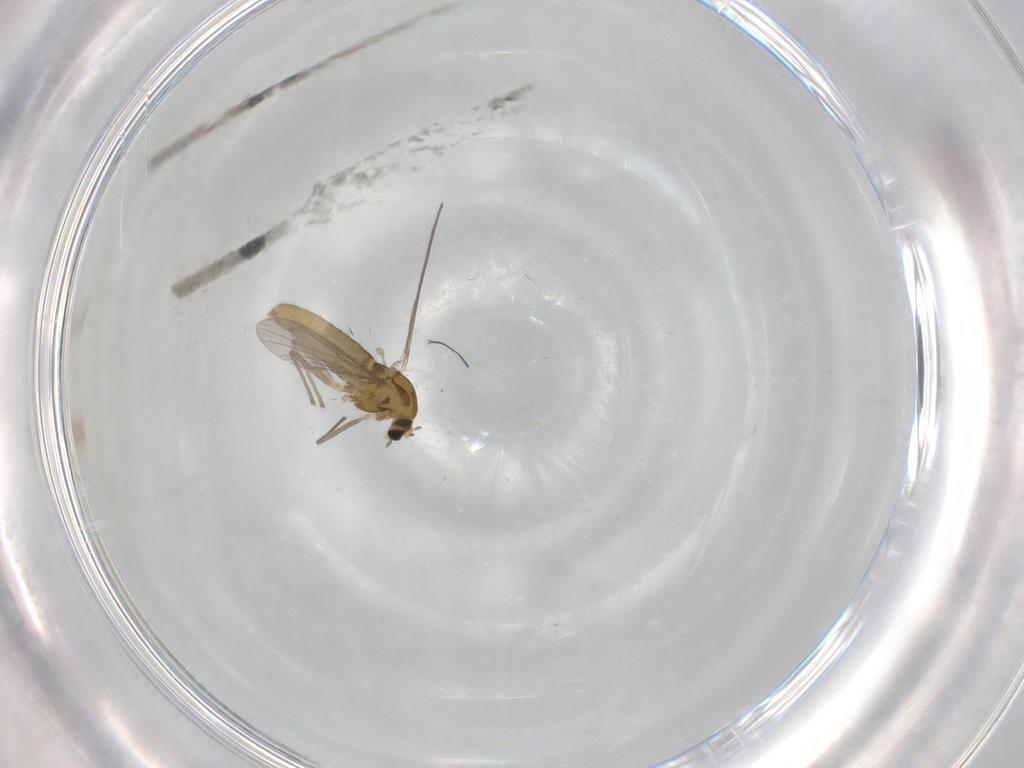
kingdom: Animalia
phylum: Arthropoda
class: Insecta
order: Diptera
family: Chironomidae
